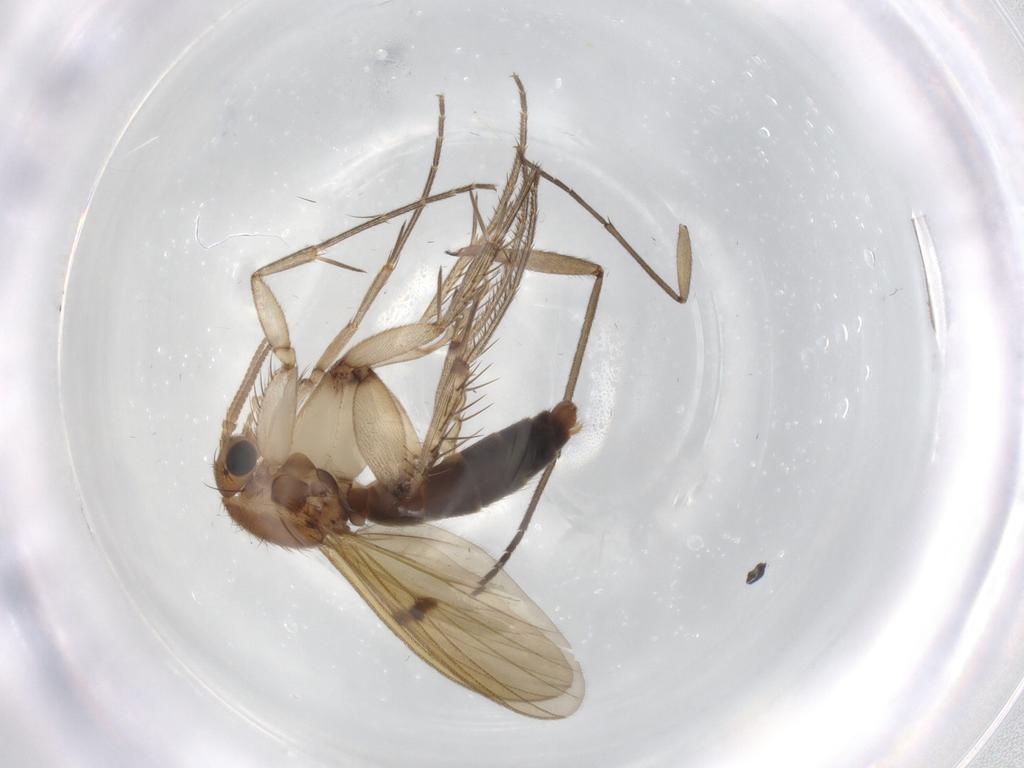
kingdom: Animalia
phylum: Arthropoda
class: Insecta
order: Diptera
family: Mycetophilidae
